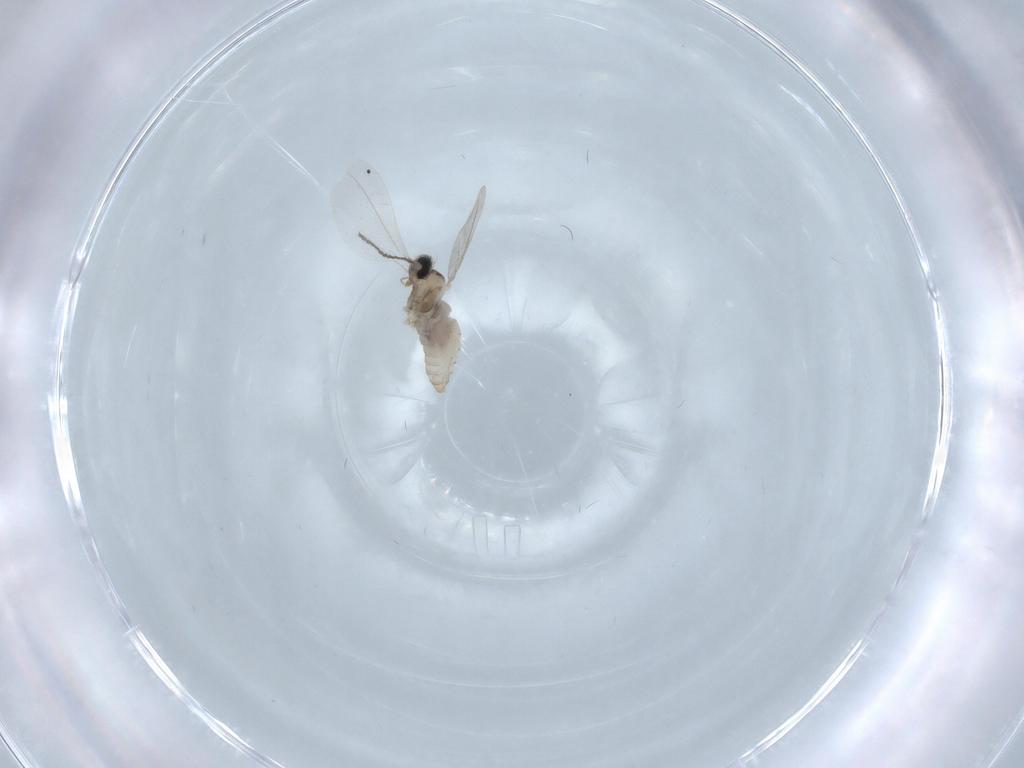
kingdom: Animalia
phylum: Arthropoda
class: Insecta
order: Diptera
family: Cecidomyiidae
